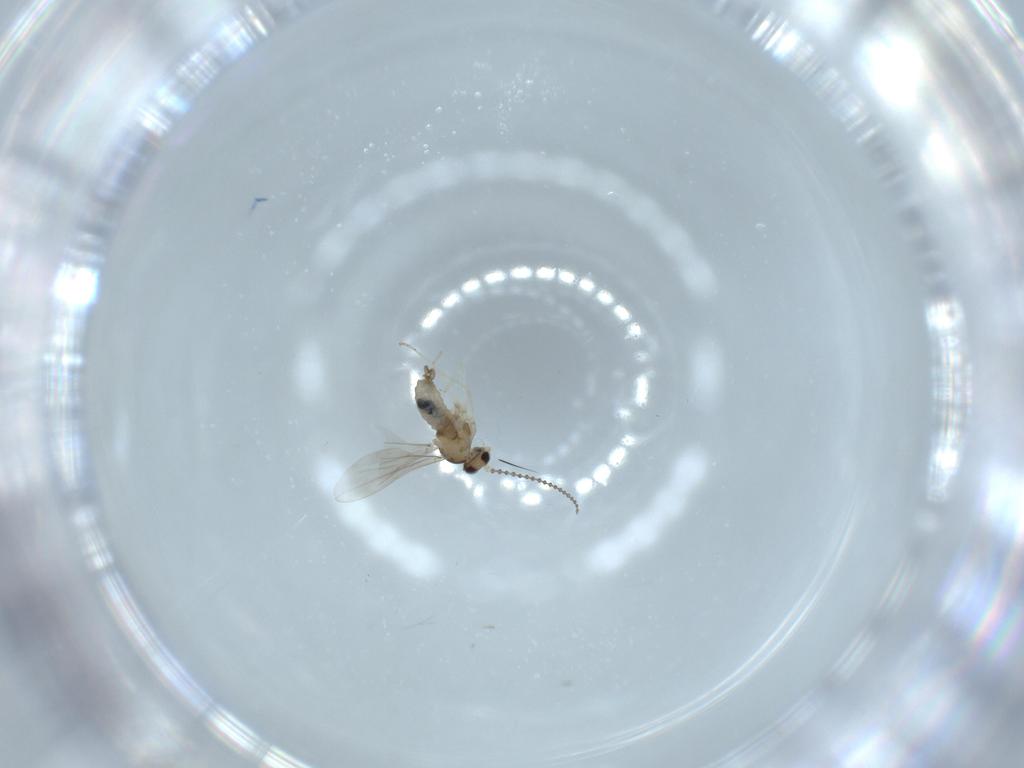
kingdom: Animalia
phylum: Arthropoda
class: Insecta
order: Diptera
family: Cecidomyiidae
